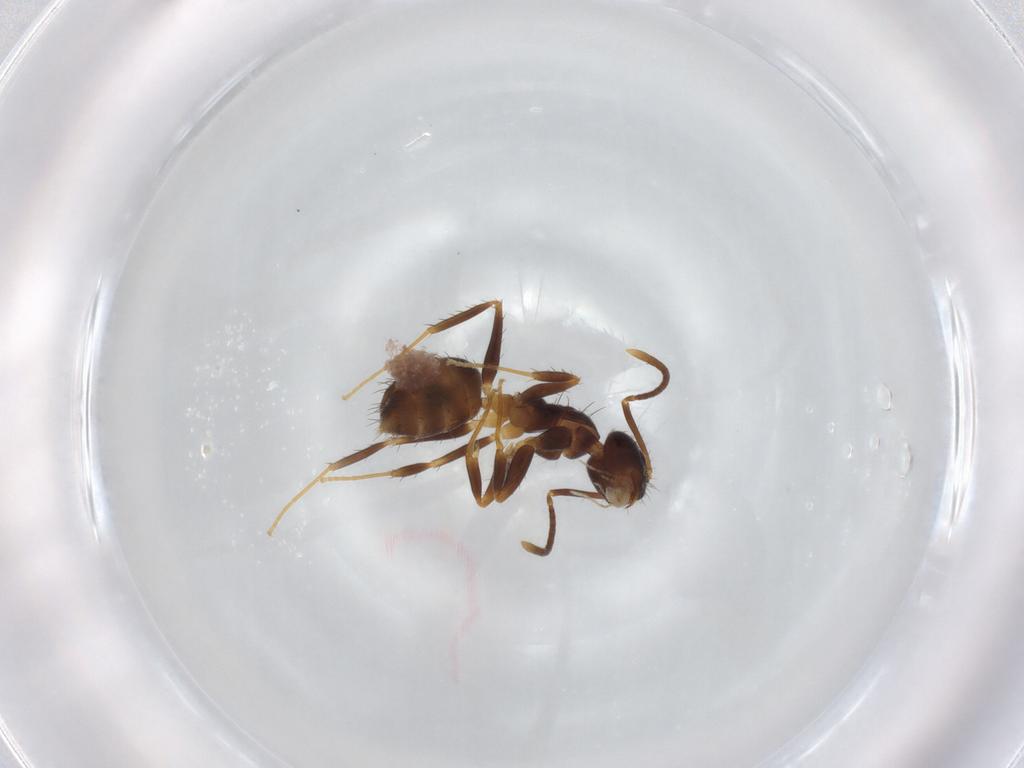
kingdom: Animalia
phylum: Arthropoda
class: Insecta
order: Hymenoptera
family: Formicidae
